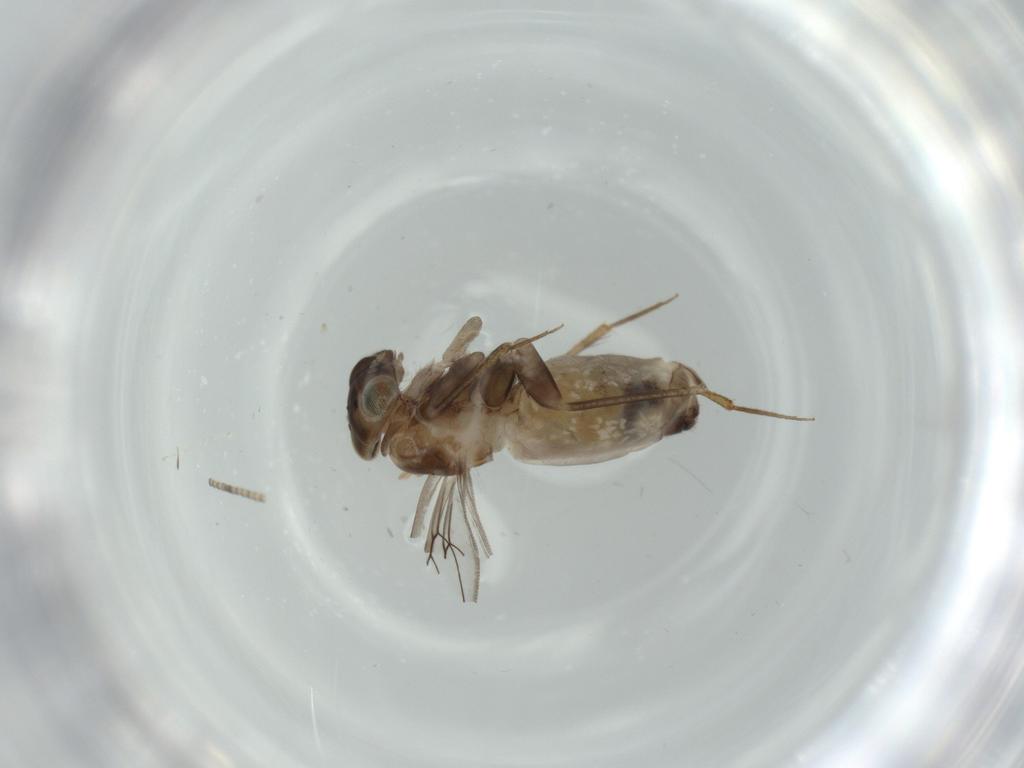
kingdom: Animalia
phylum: Arthropoda
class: Insecta
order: Psocodea
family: Lepidopsocidae
